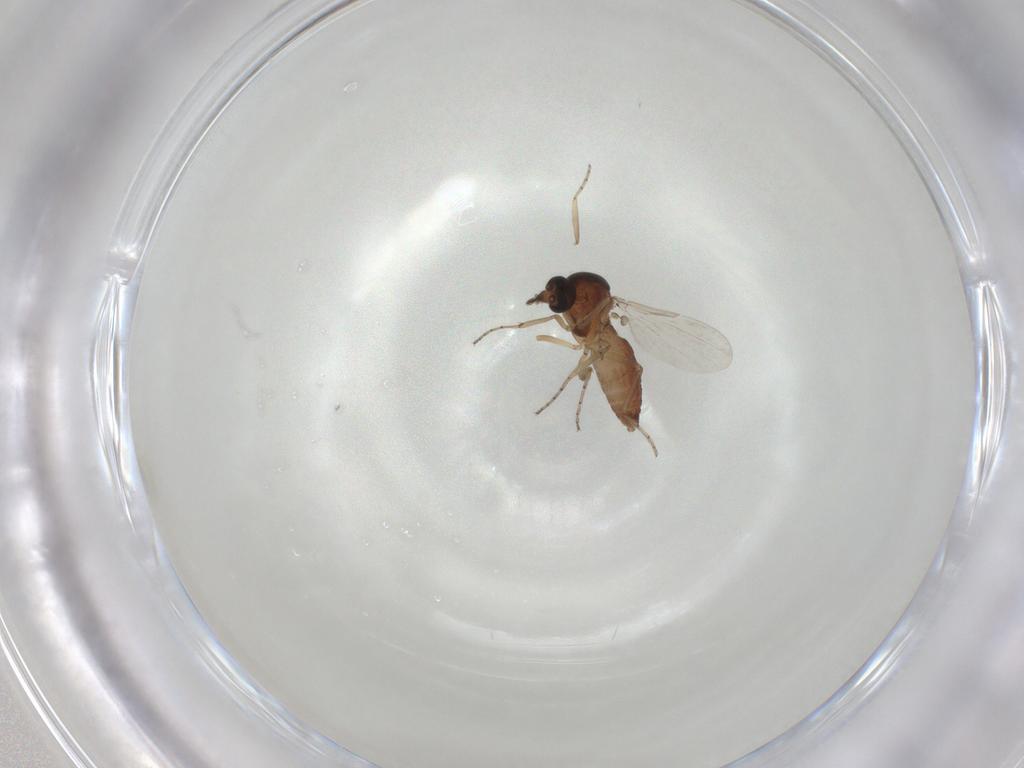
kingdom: Animalia
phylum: Arthropoda
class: Insecta
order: Diptera
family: Ceratopogonidae
